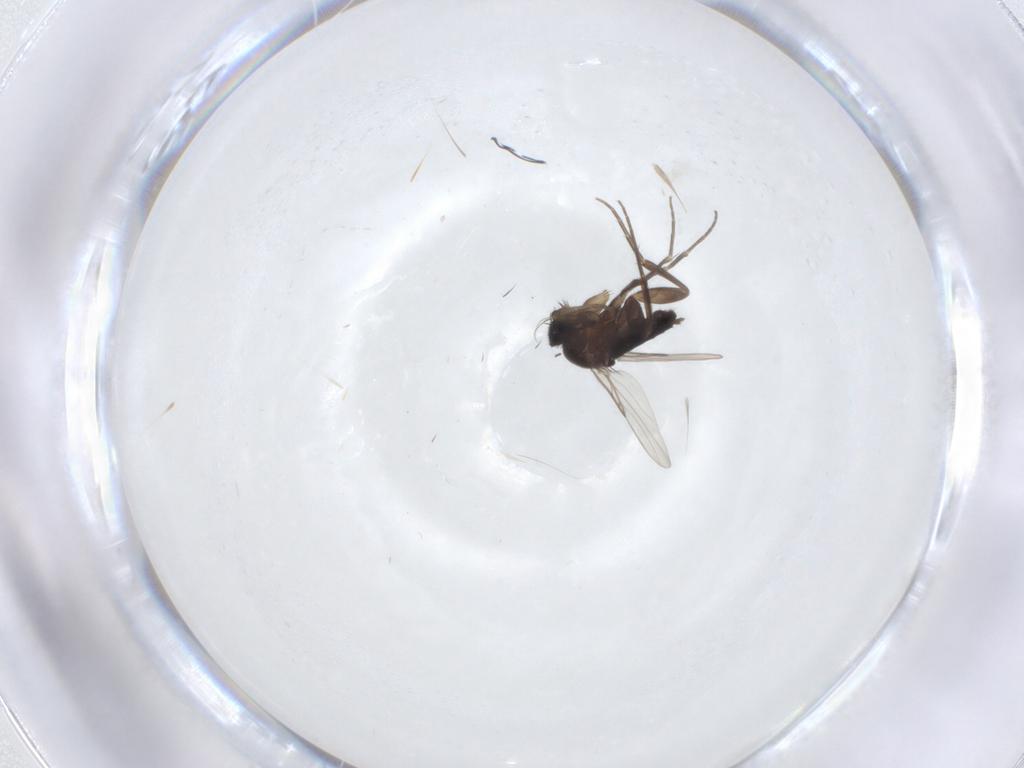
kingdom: Animalia
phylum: Arthropoda
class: Insecta
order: Diptera
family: Phoridae
